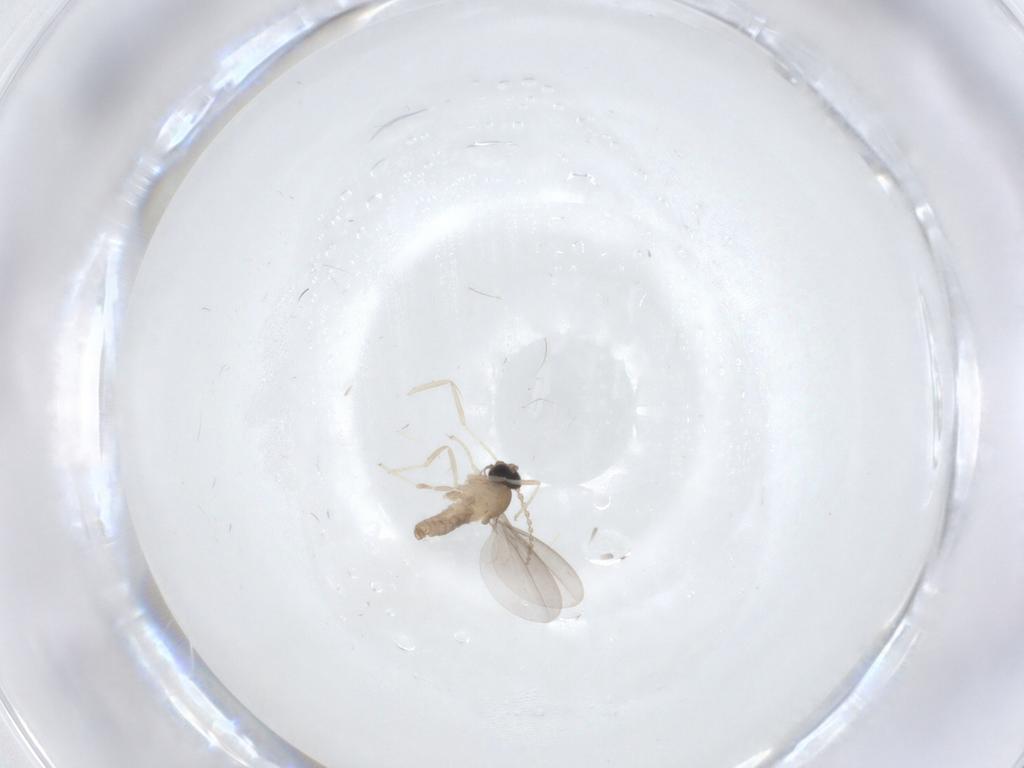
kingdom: Animalia
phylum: Arthropoda
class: Insecta
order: Diptera
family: Cecidomyiidae
